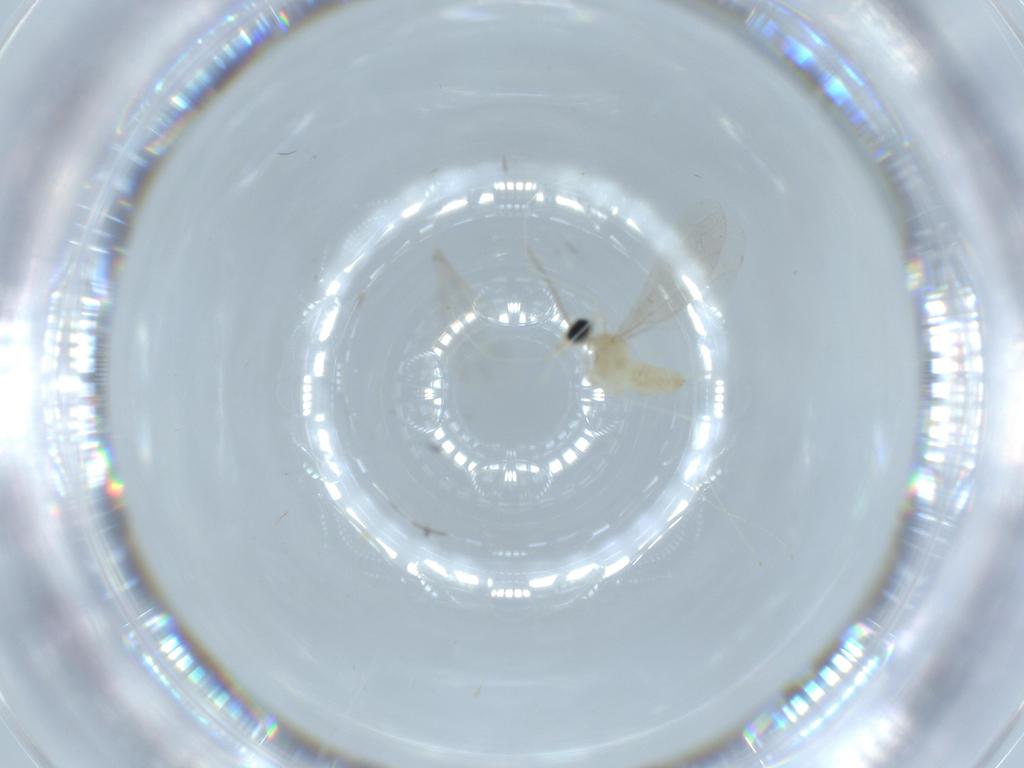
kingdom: Animalia
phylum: Arthropoda
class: Insecta
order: Diptera
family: Cecidomyiidae
